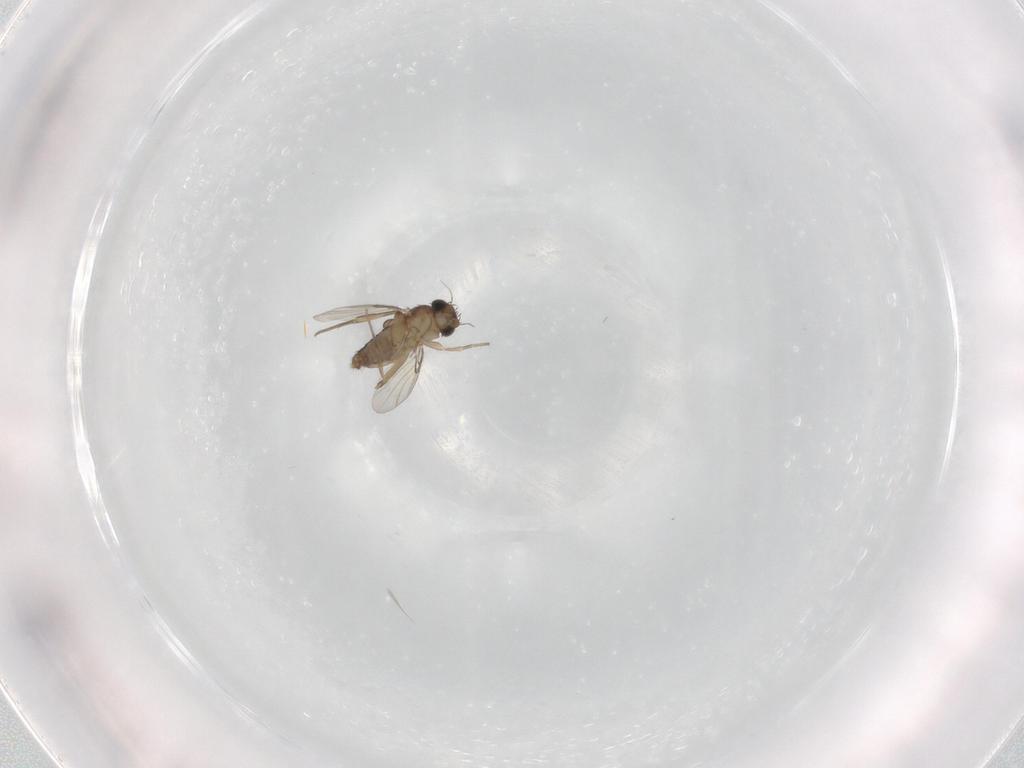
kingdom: Animalia
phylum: Arthropoda
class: Insecta
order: Diptera
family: Phoridae
